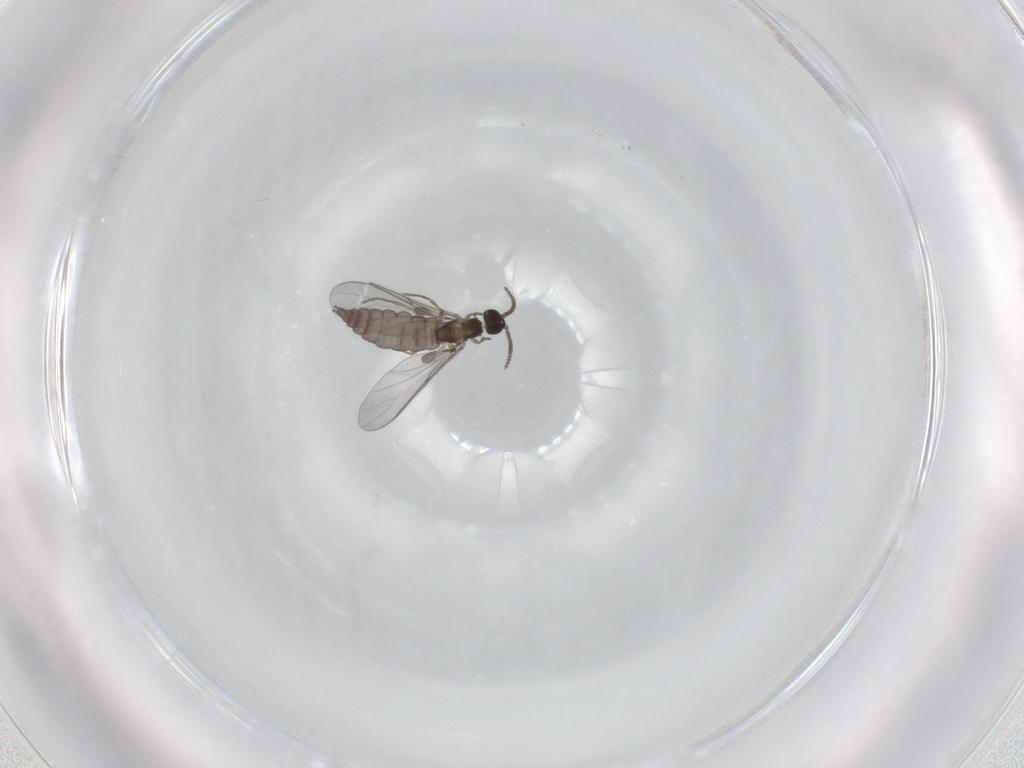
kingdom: Animalia
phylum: Arthropoda
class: Insecta
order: Diptera
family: Sciaridae
